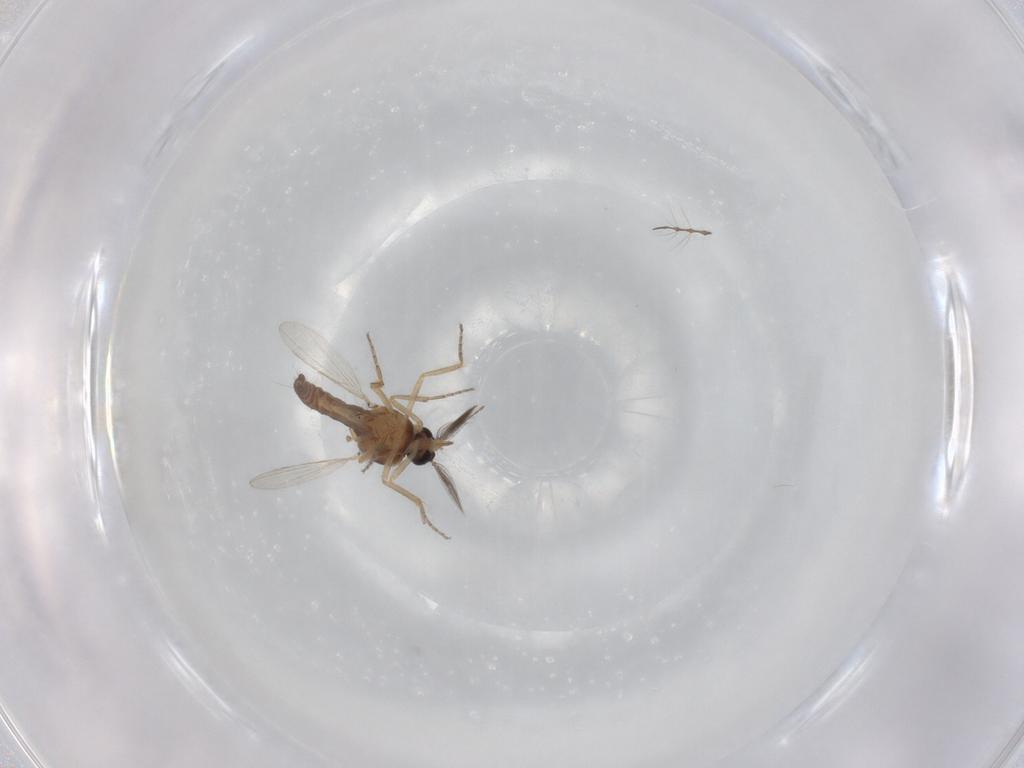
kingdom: Animalia
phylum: Arthropoda
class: Insecta
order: Diptera
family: Ceratopogonidae
